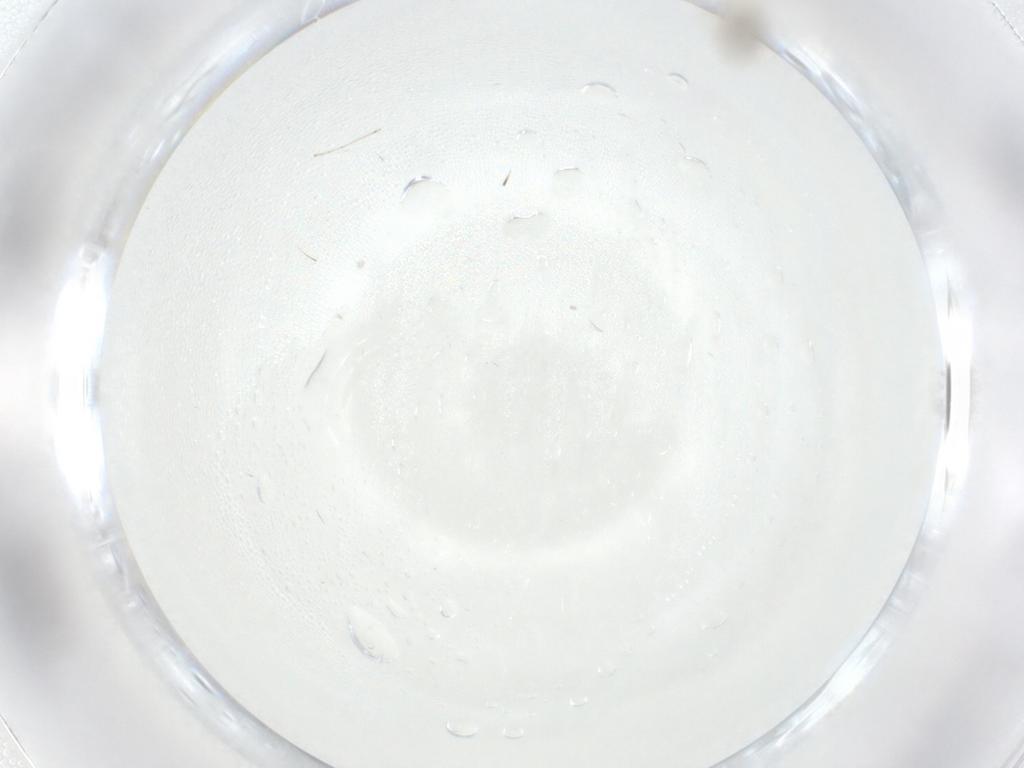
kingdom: Animalia
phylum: Arthropoda
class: Insecta
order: Diptera
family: Cecidomyiidae
